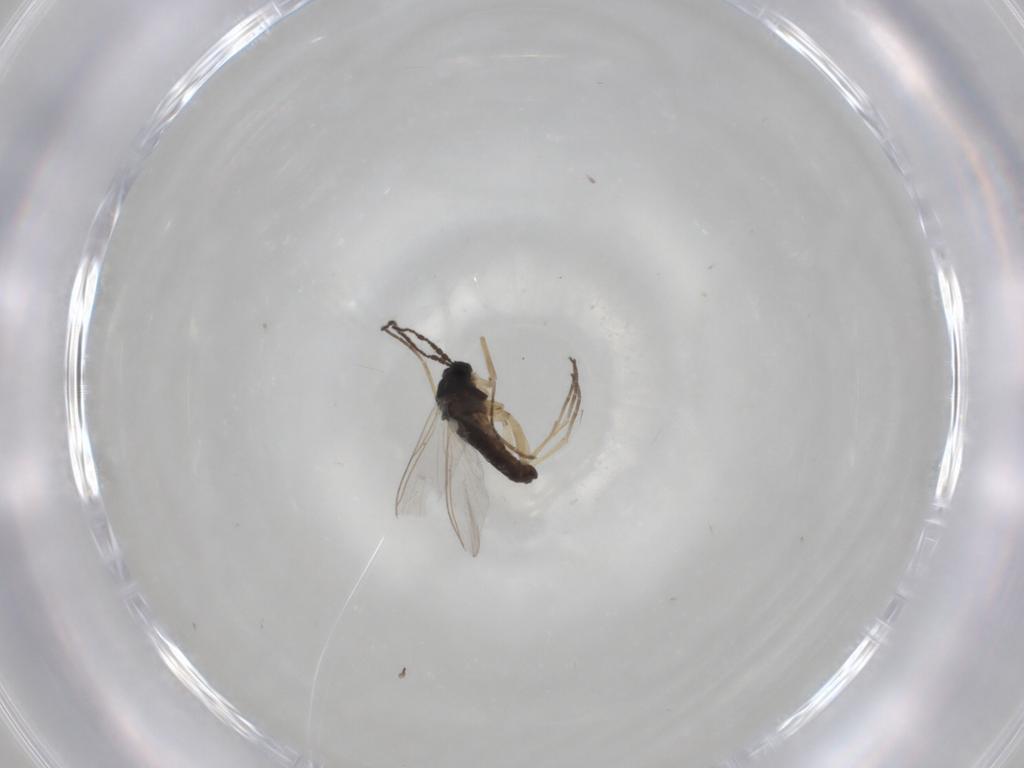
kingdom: Animalia
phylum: Arthropoda
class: Insecta
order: Diptera
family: Sciaridae
